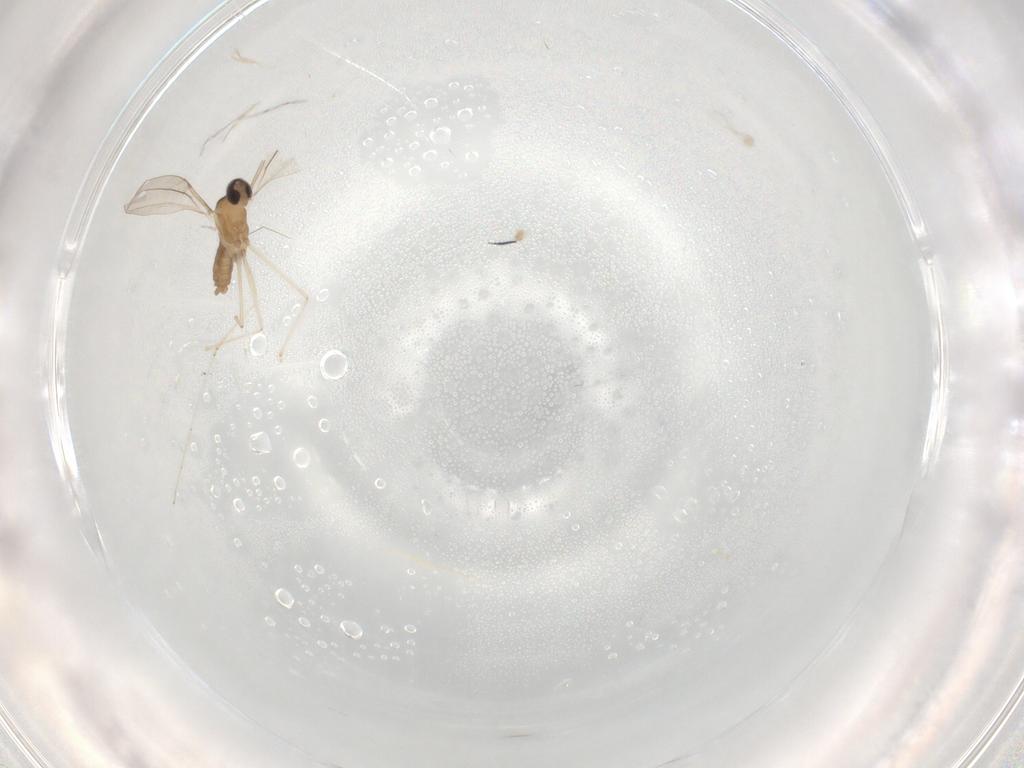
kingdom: Animalia
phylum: Arthropoda
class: Insecta
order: Diptera
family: Cecidomyiidae
